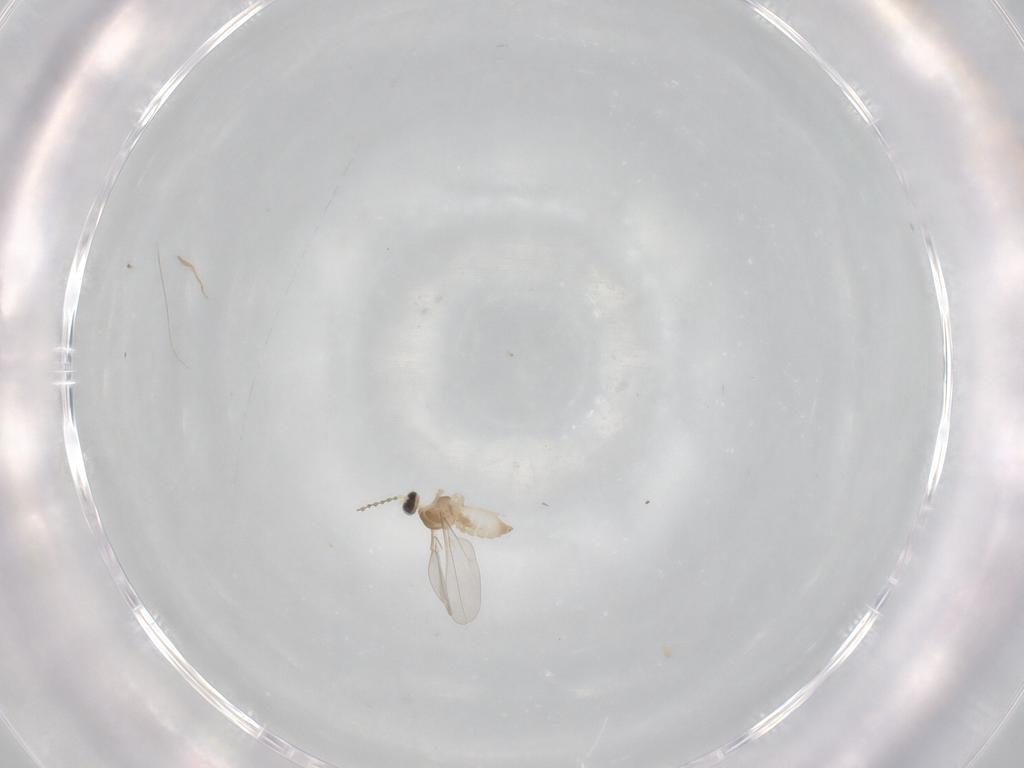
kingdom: Animalia
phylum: Arthropoda
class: Insecta
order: Diptera
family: Cecidomyiidae
